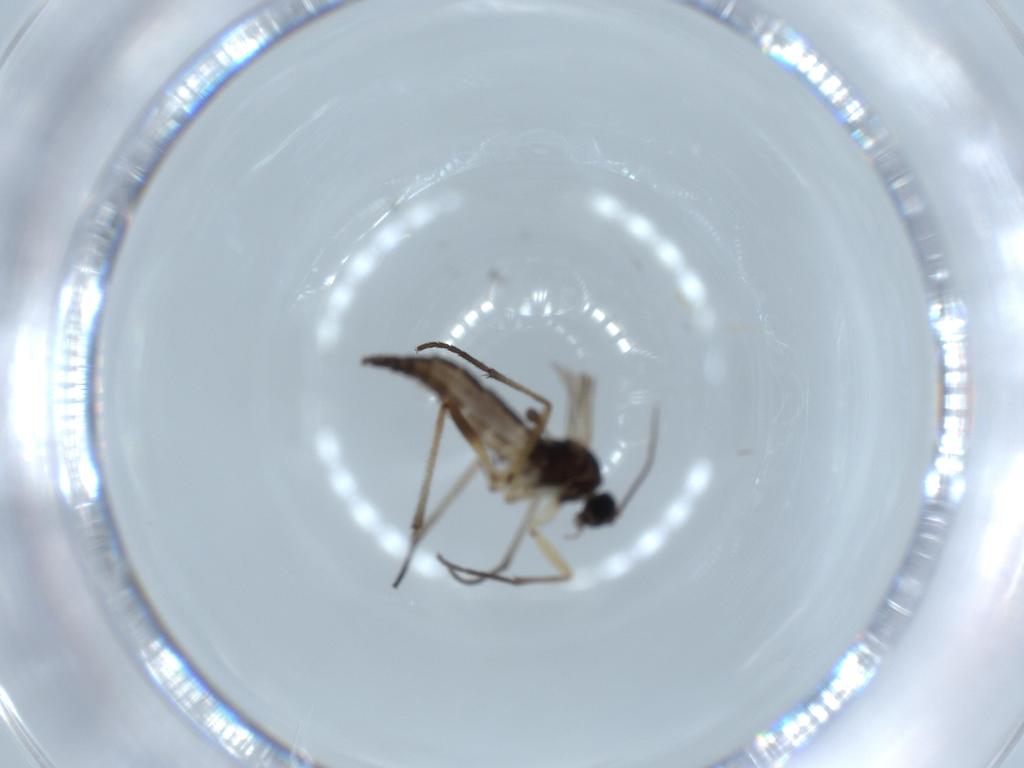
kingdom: Animalia
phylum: Arthropoda
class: Insecta
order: Diptera
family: Sciaridae
